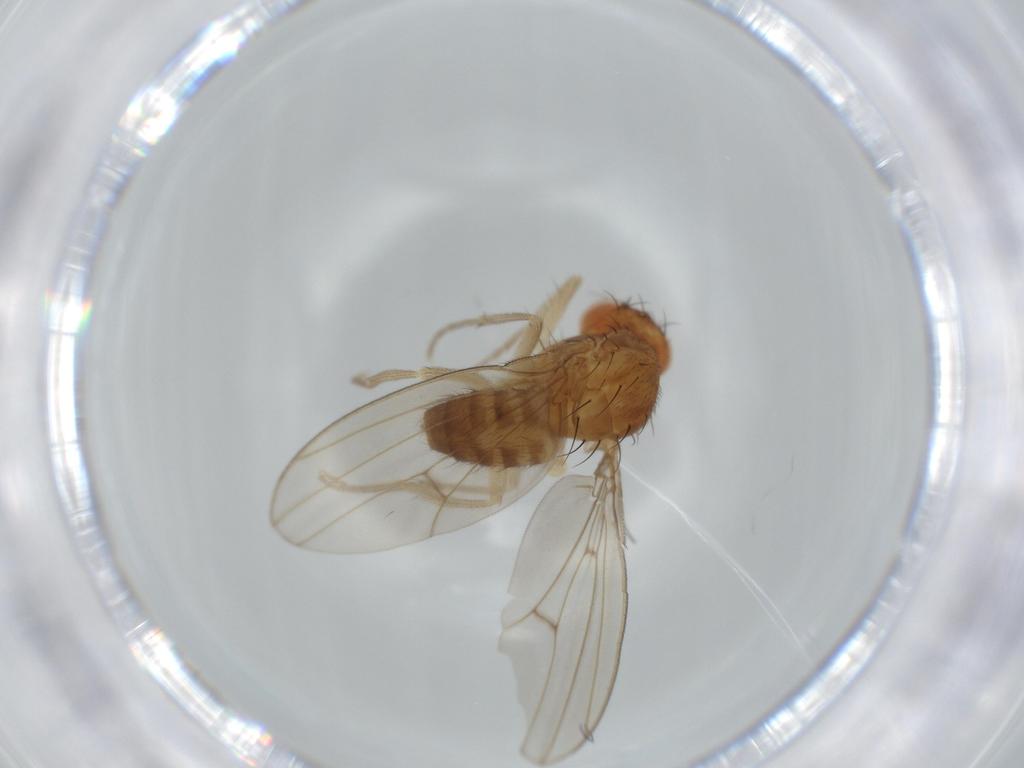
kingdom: Animalia
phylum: Arthropoda
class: Insecta
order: Diptera
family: Drosophilidae
